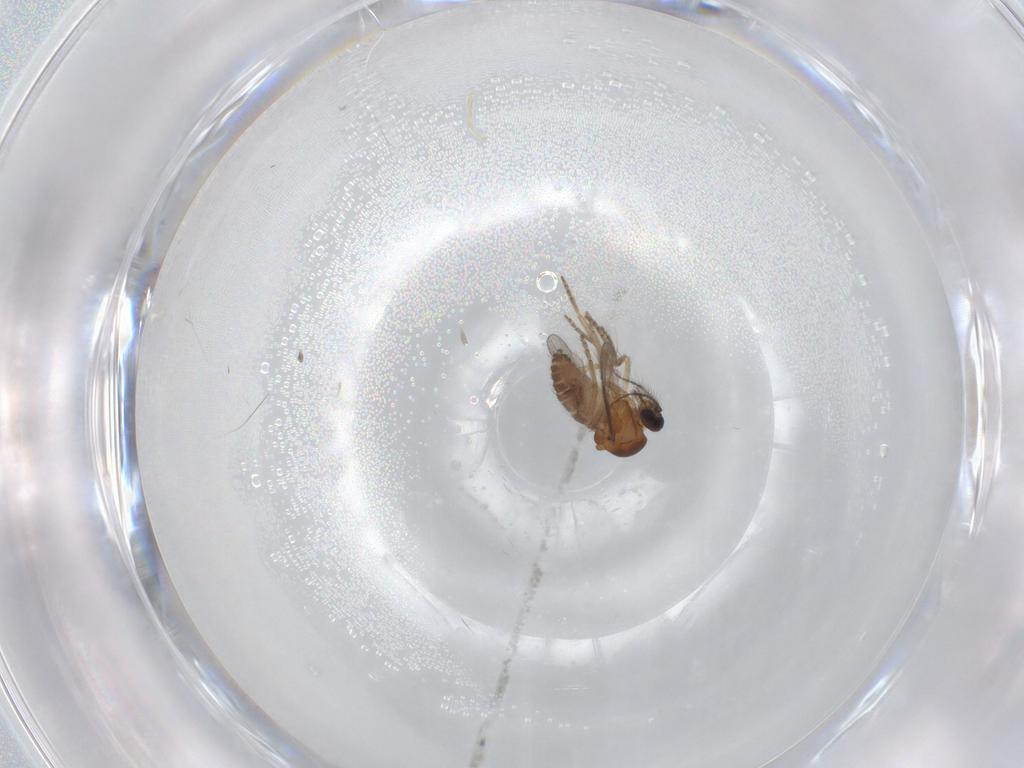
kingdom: Animalia
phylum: Arthropoda
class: Insecta
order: Diptera
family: Ceratopogonidae
